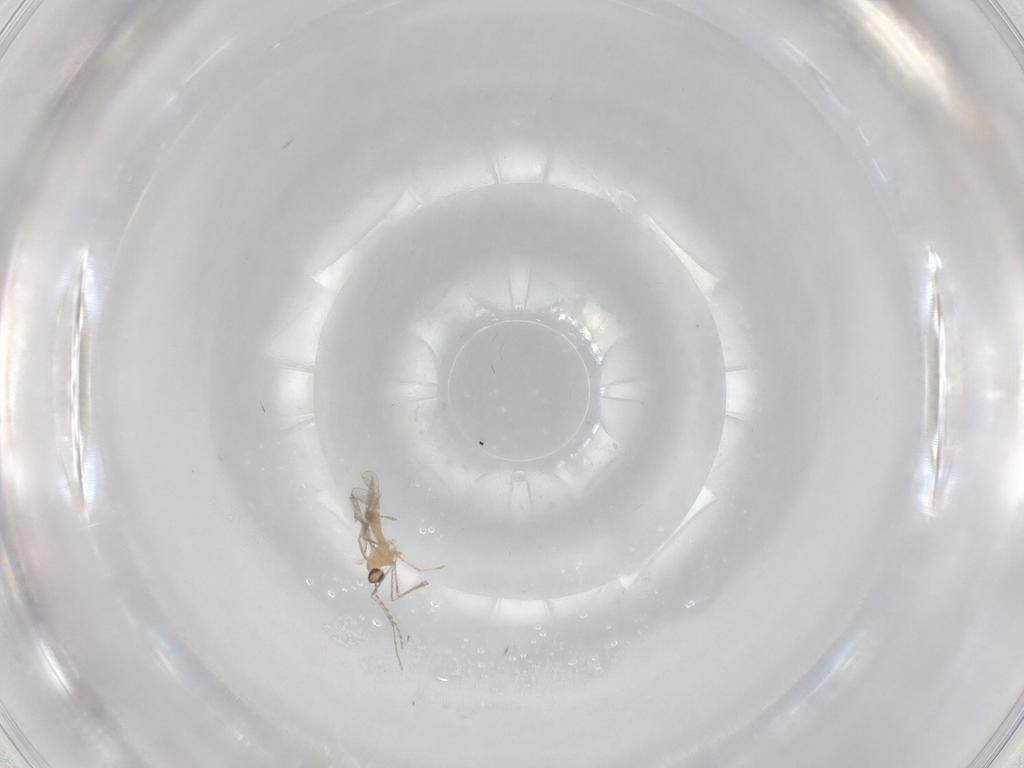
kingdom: Animalia
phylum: Arthropoda
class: Insecta
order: Diptera
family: Cecidomyiidae
